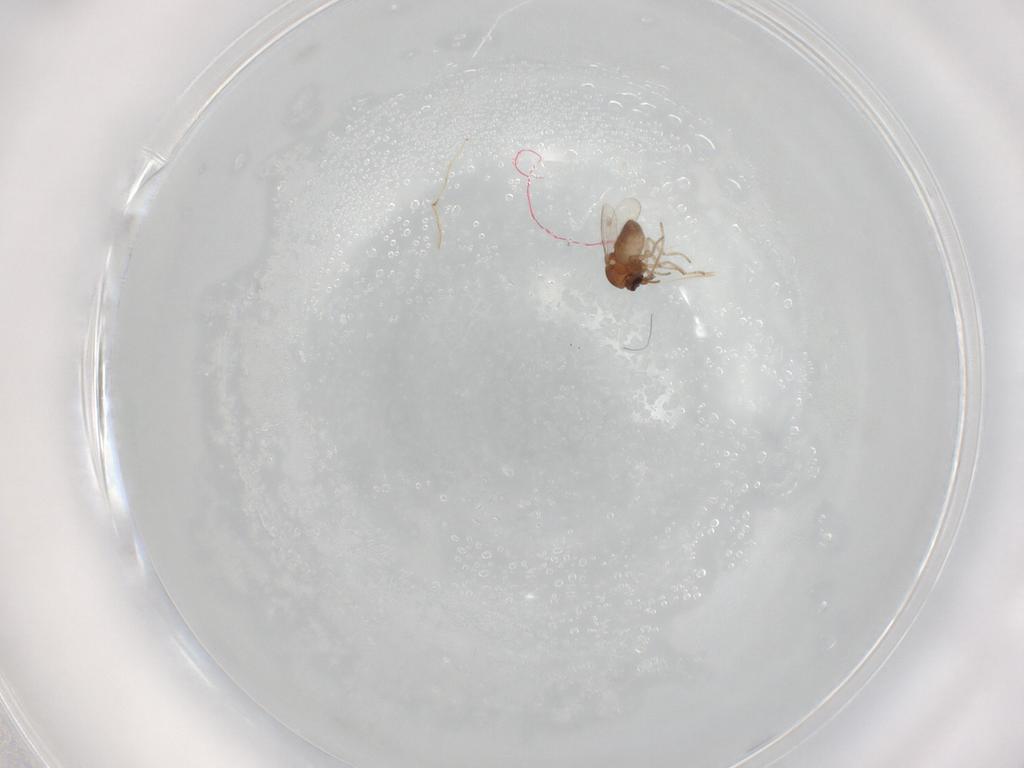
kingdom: Animalia
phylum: Arthropoda
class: Insecta
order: Diptera
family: Ceratopogonidae
